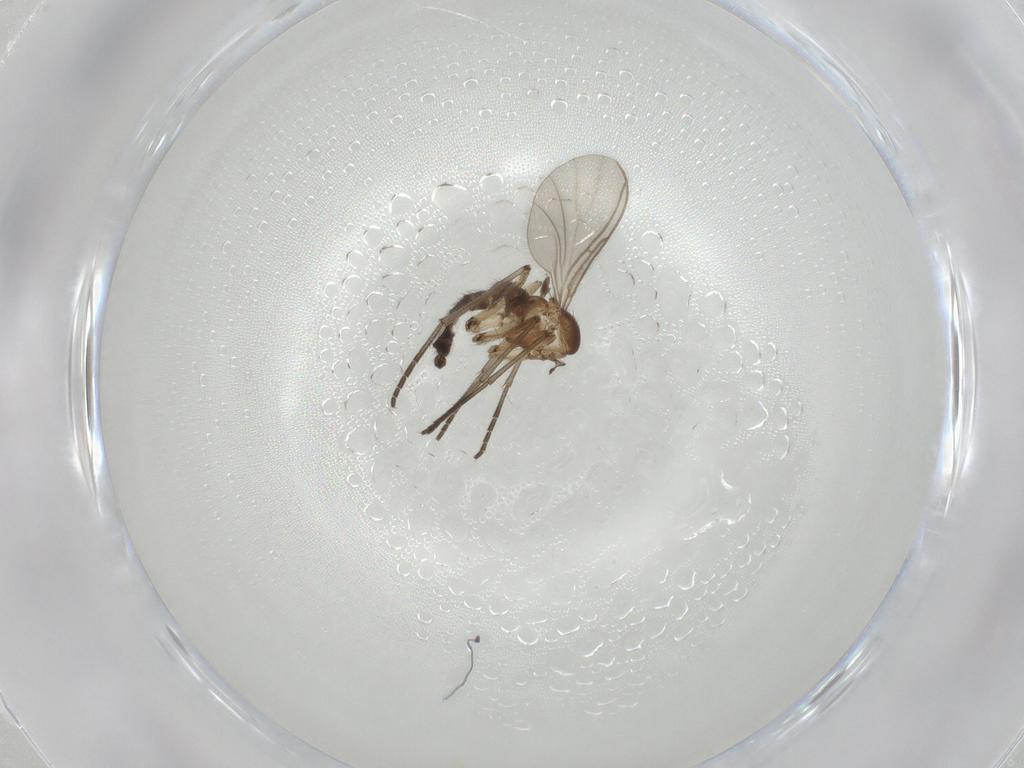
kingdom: Animalia
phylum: Arthropoda
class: Insecta
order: Diptera
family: Sciaridae
